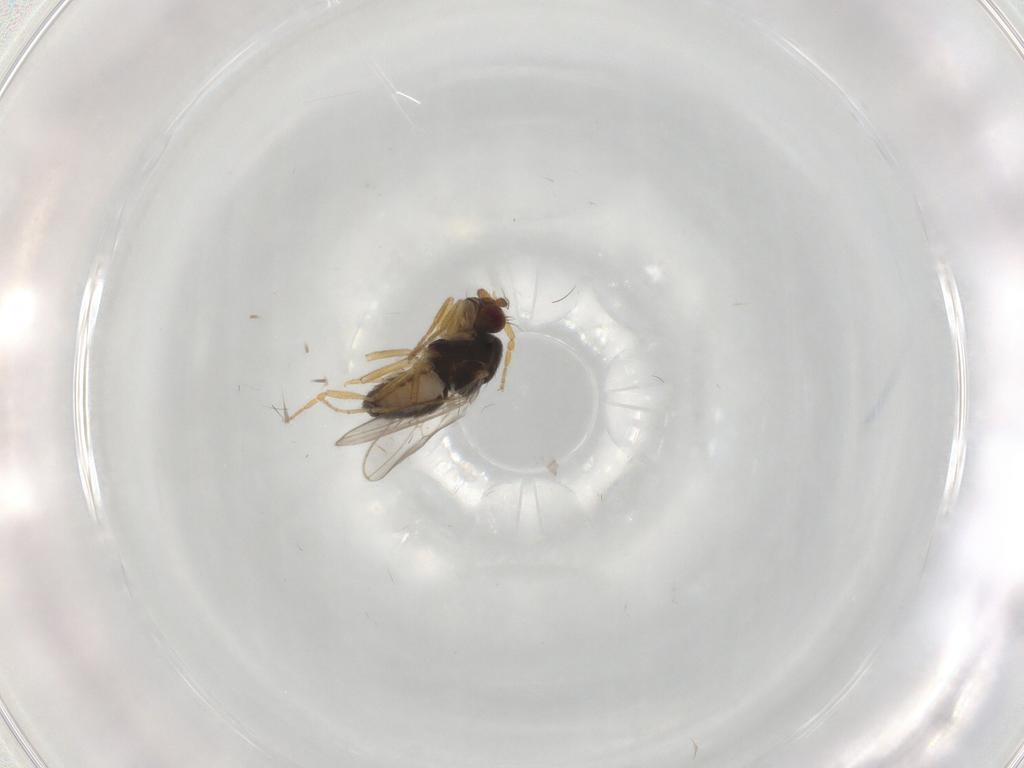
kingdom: Animalia
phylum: Arthropoda
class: Insecta
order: Diptera
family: Sphaeroceridae
